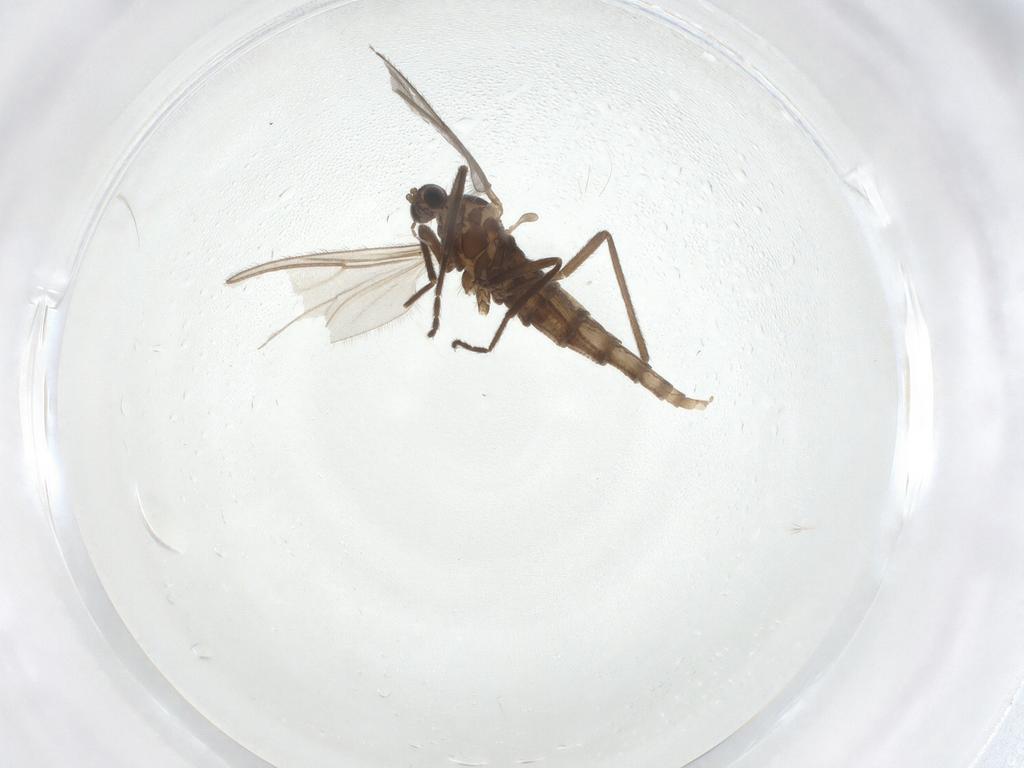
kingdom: Animalia
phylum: Arthropoda
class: Insecta
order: Diptera
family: Cecidomyiidae
